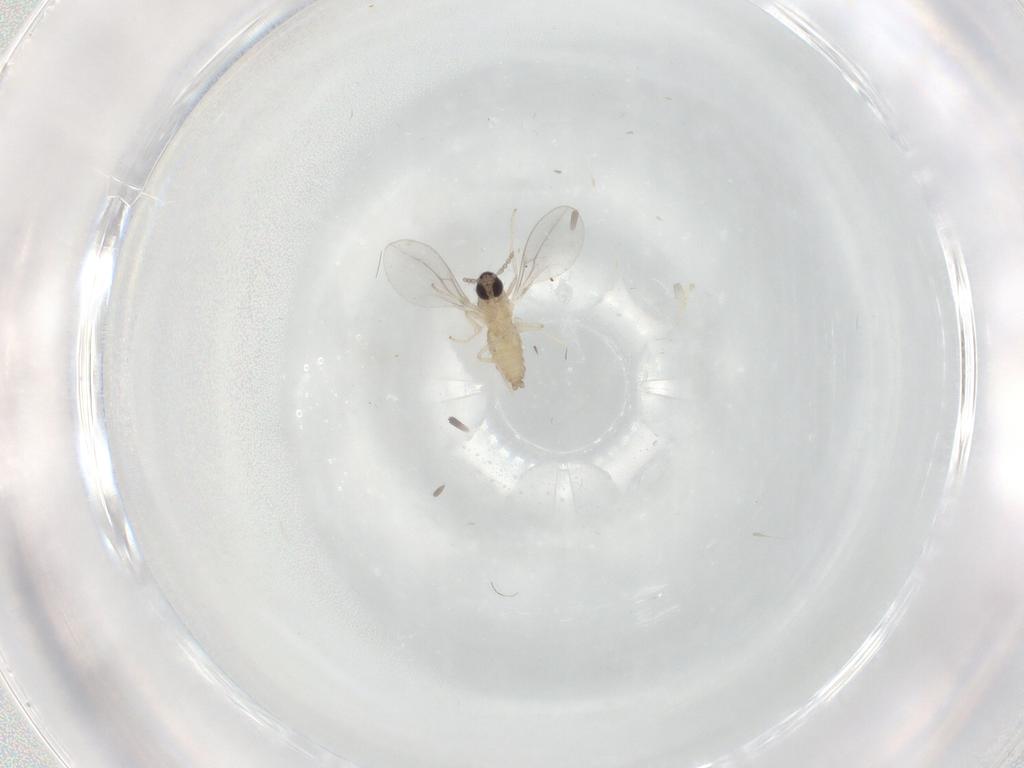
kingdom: Animalia
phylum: Arthropoda
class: Insecta
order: Diptera
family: Cecidomyiidae
